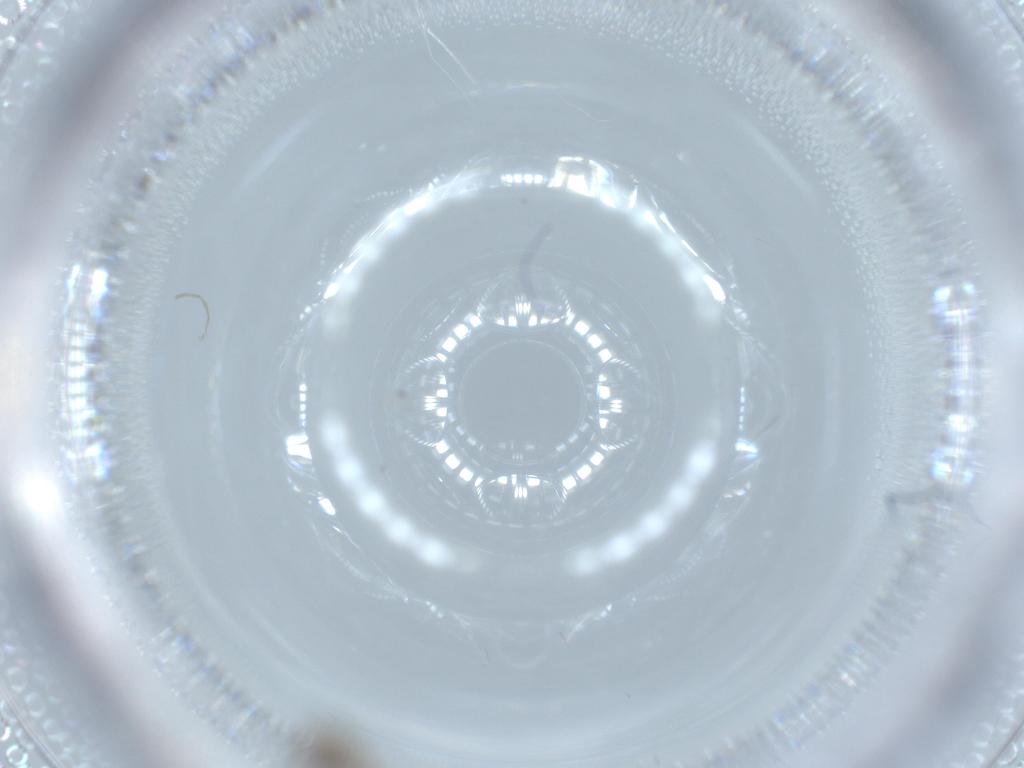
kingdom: Animalia
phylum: Arthropoda
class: Insecta
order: Diptera
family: Chironomidae
